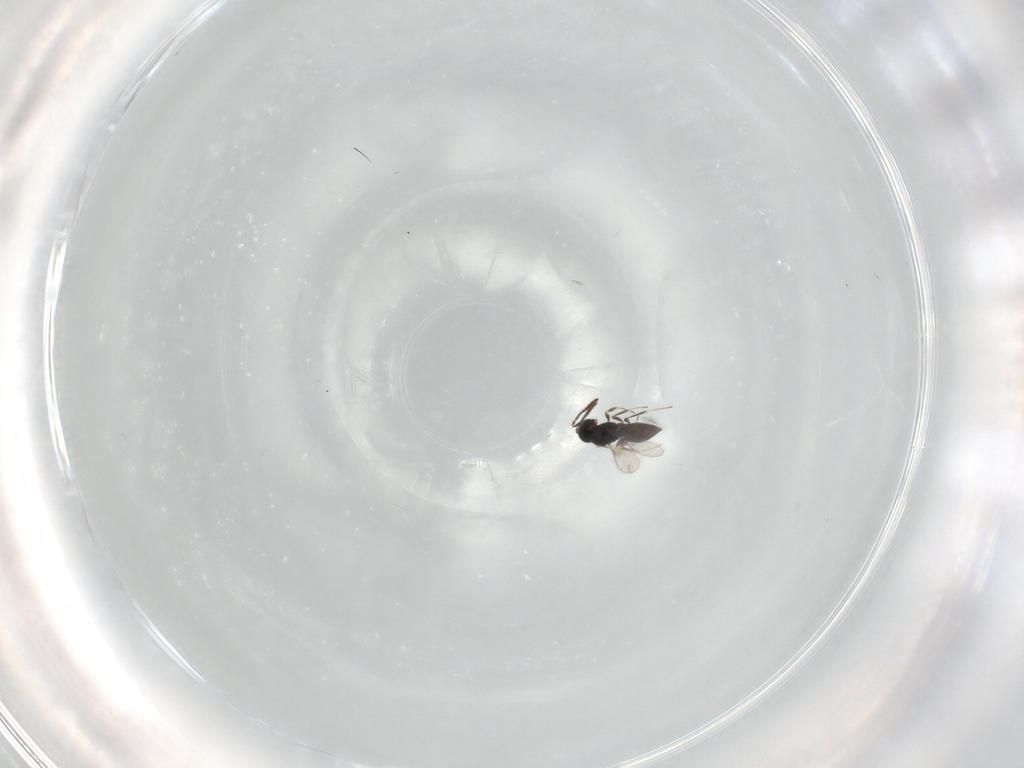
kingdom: Animalia
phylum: Arthropoda
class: Insecta
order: Hymenoptera
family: Scelionidae
